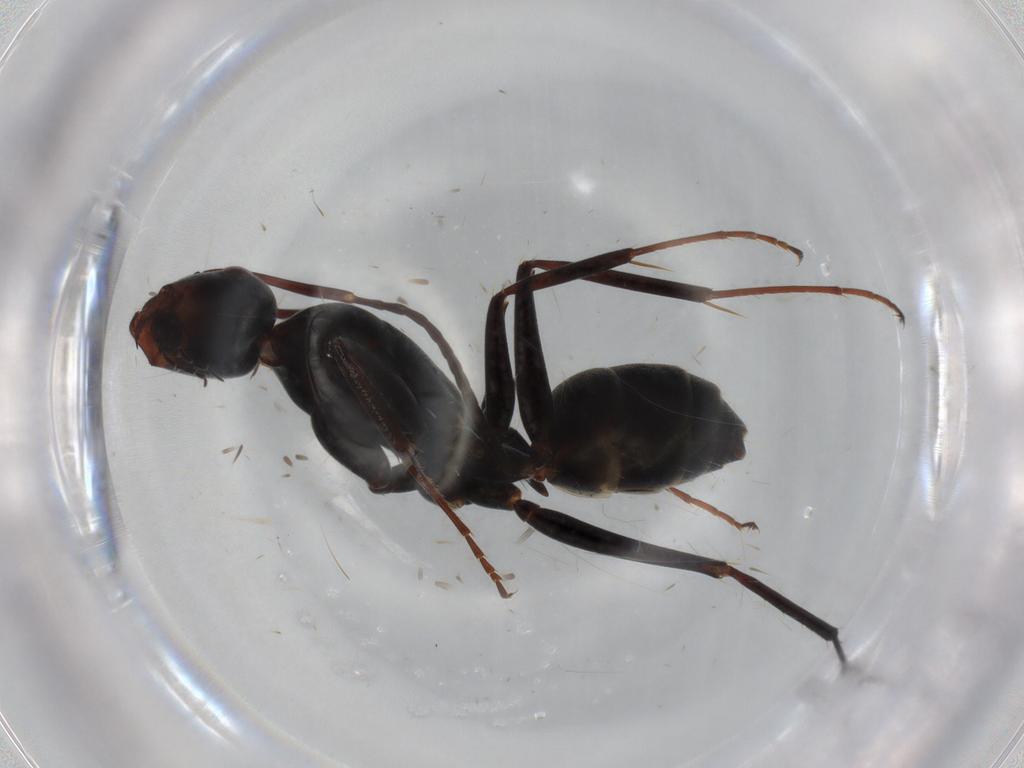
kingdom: Animalia
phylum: Arthropoda
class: Insecta
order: Hymenoptera
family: Formicidae
